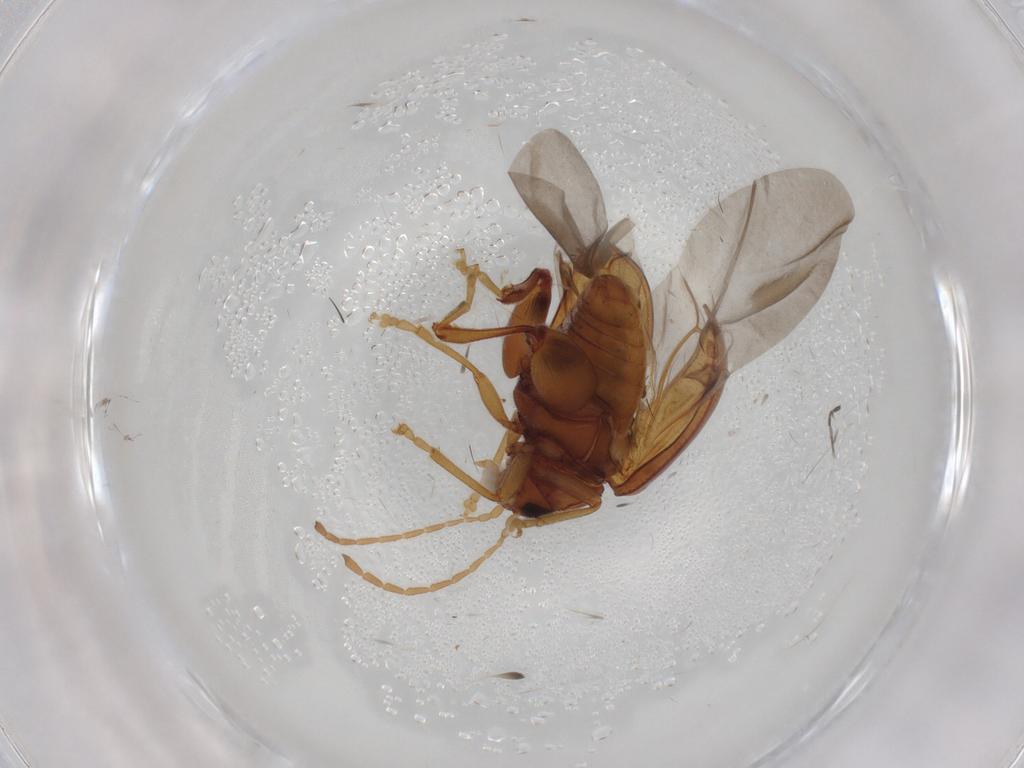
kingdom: Animalia
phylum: Arthropoda
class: Insecta
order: Coleoptera
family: Chrysomelidae
